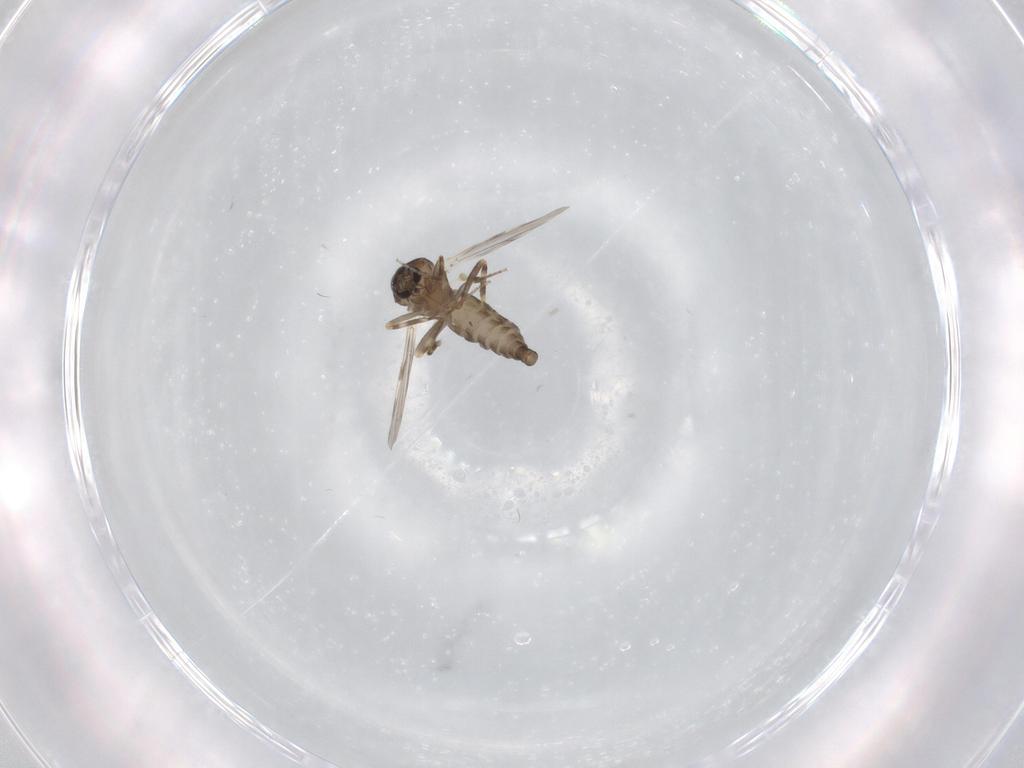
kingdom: Animalia
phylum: Arthropoda
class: Insecta
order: Diptera
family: Ceratopogonidae
